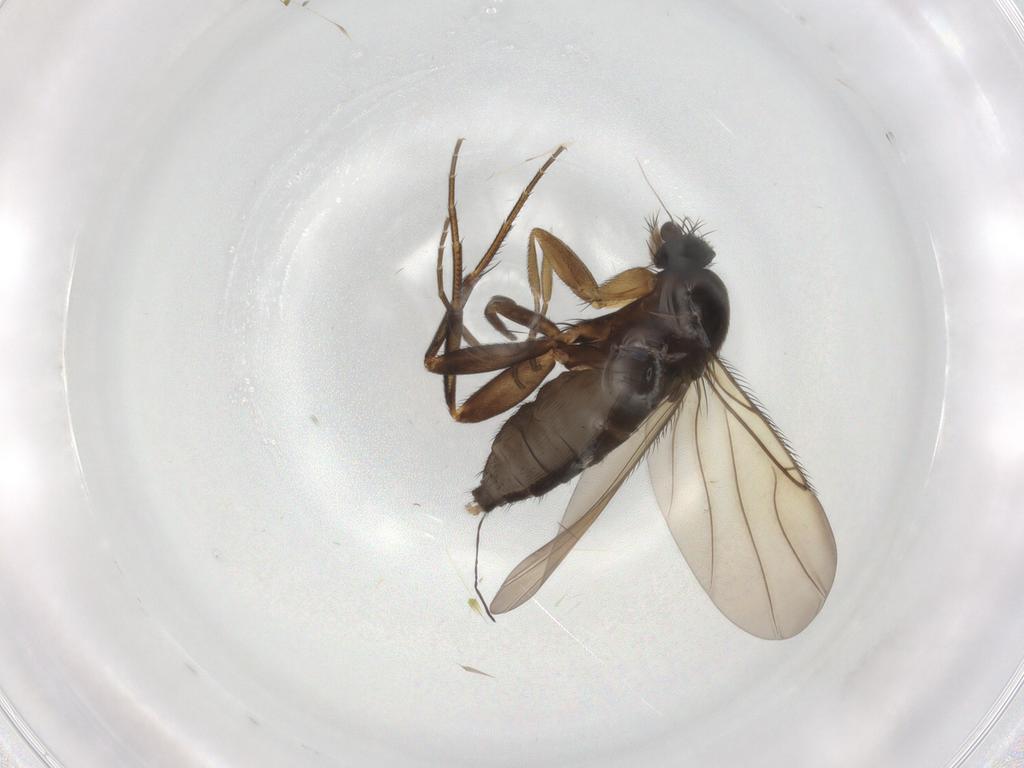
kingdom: Animalia
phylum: Arthropoda
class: Insecta
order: Diptera
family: Phoridae
